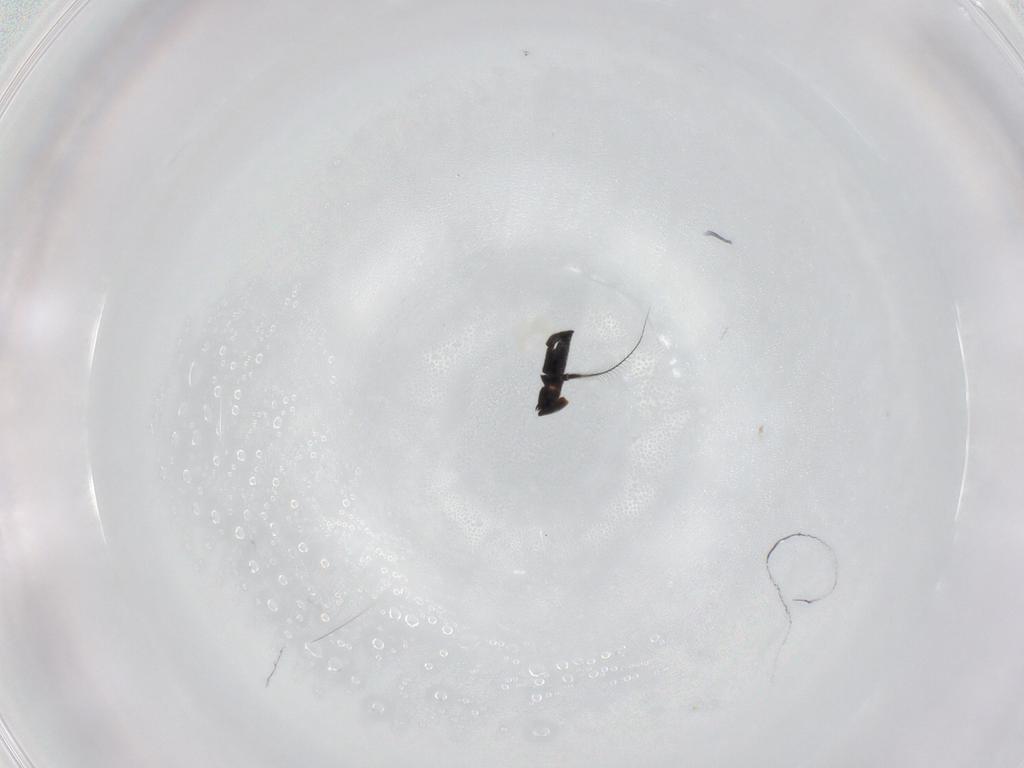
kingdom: Animalia
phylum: Arthropoda
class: Insecta
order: Diptera
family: Muscidae
